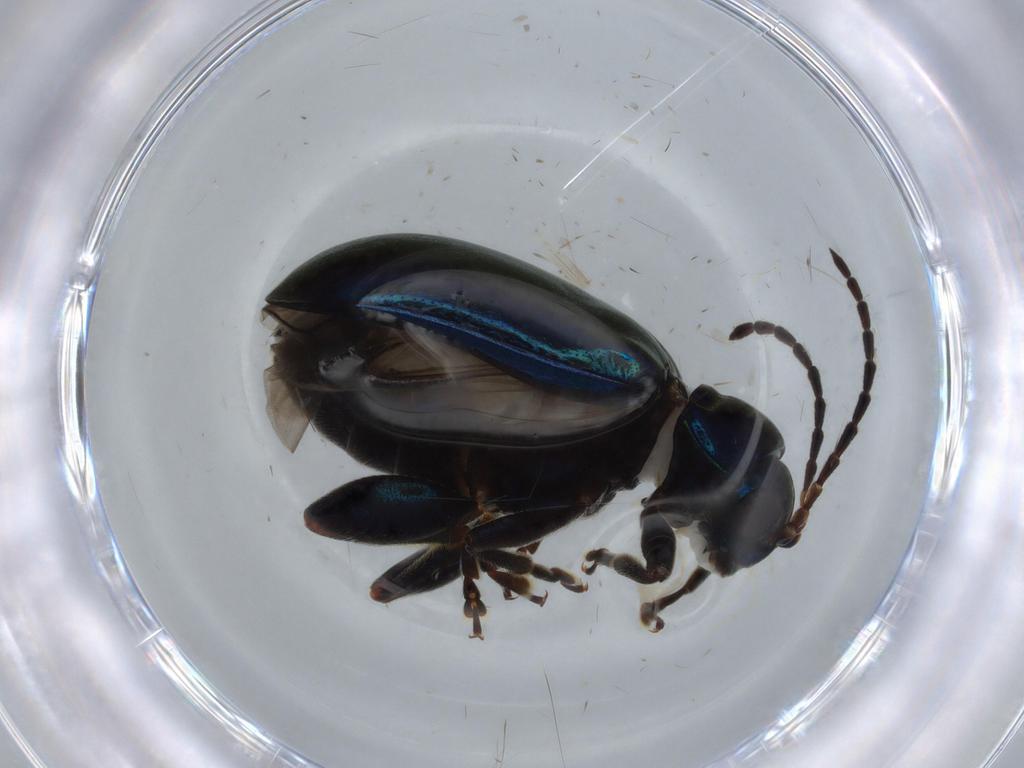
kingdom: Animalia
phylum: Arthropoda
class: Insecta
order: Coleoptera
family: Chrysomelidae
